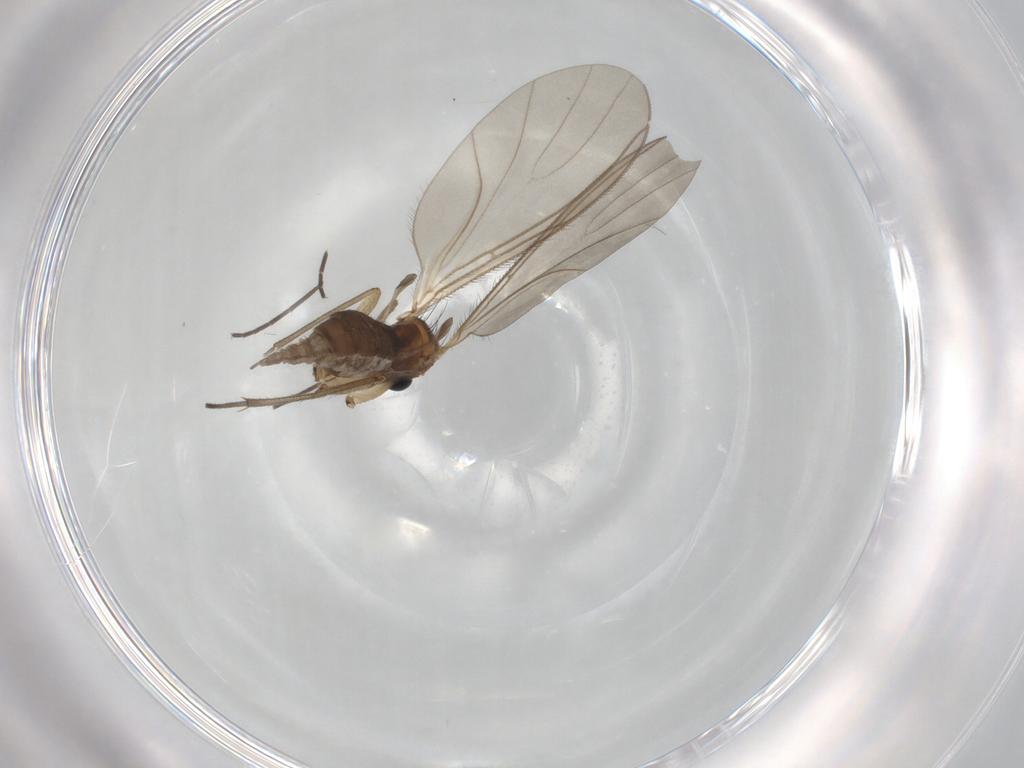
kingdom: Animalia
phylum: Arthropoda
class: Insecta
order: Diptera
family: Sciaridae
